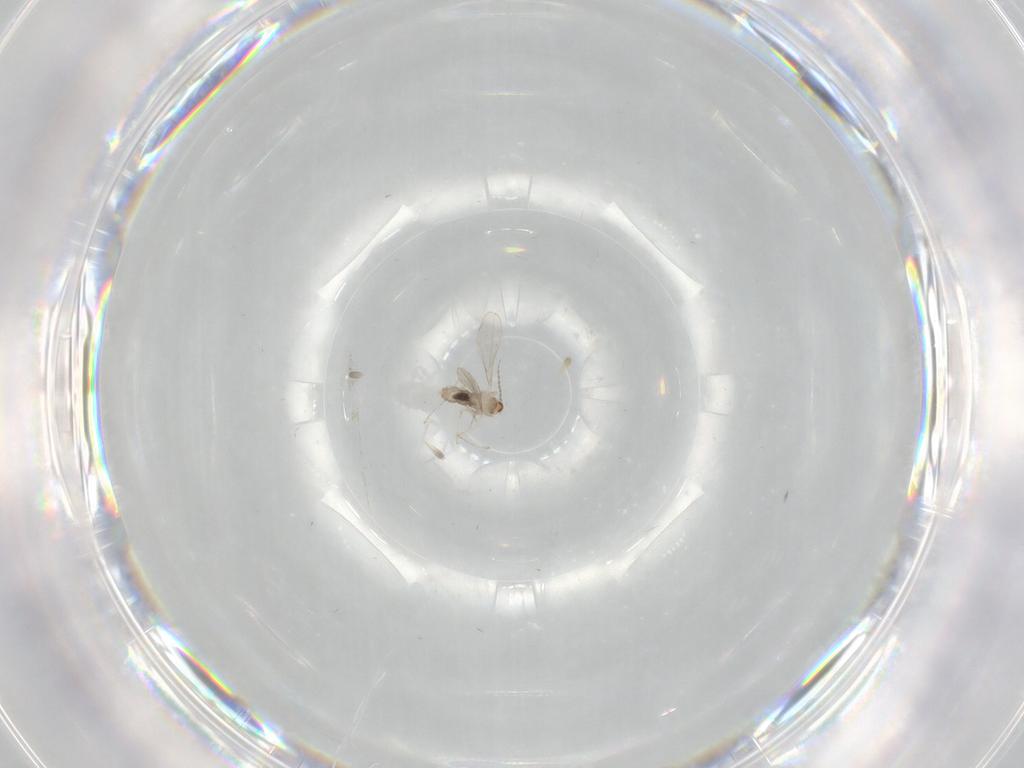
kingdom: Animalia
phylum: Arthropoda
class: Insecta
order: Diptera
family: Cecidomyiidae
